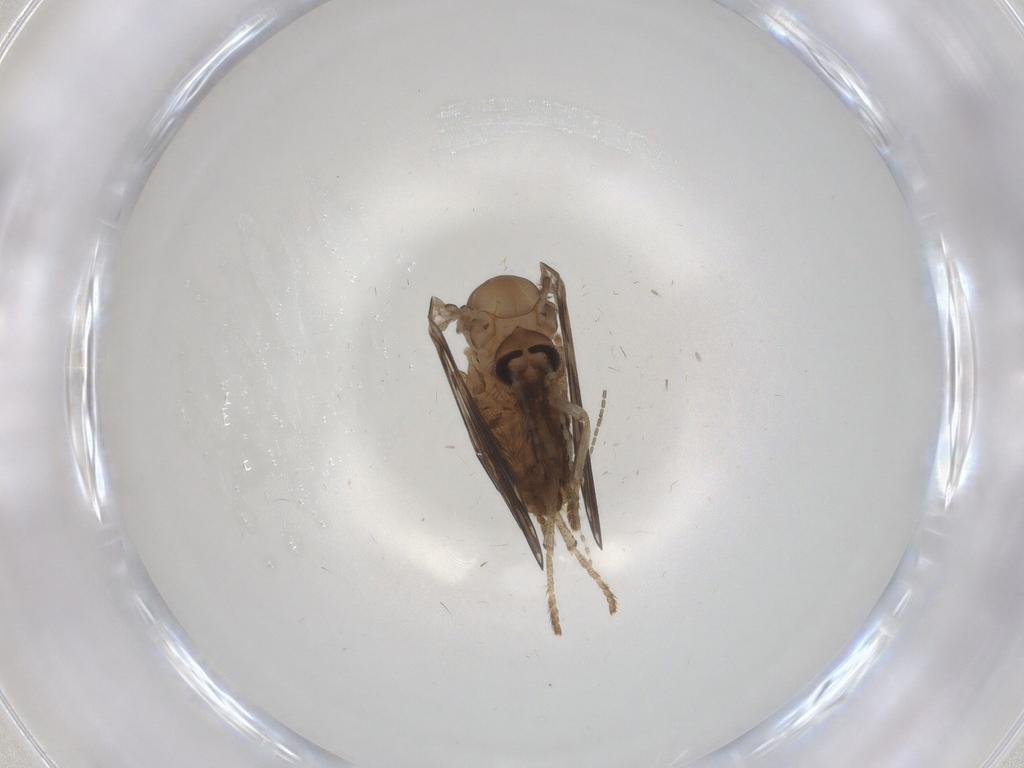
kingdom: Animalia
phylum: Arthropoda
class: Insecta
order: Diptera
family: Psychodidae
